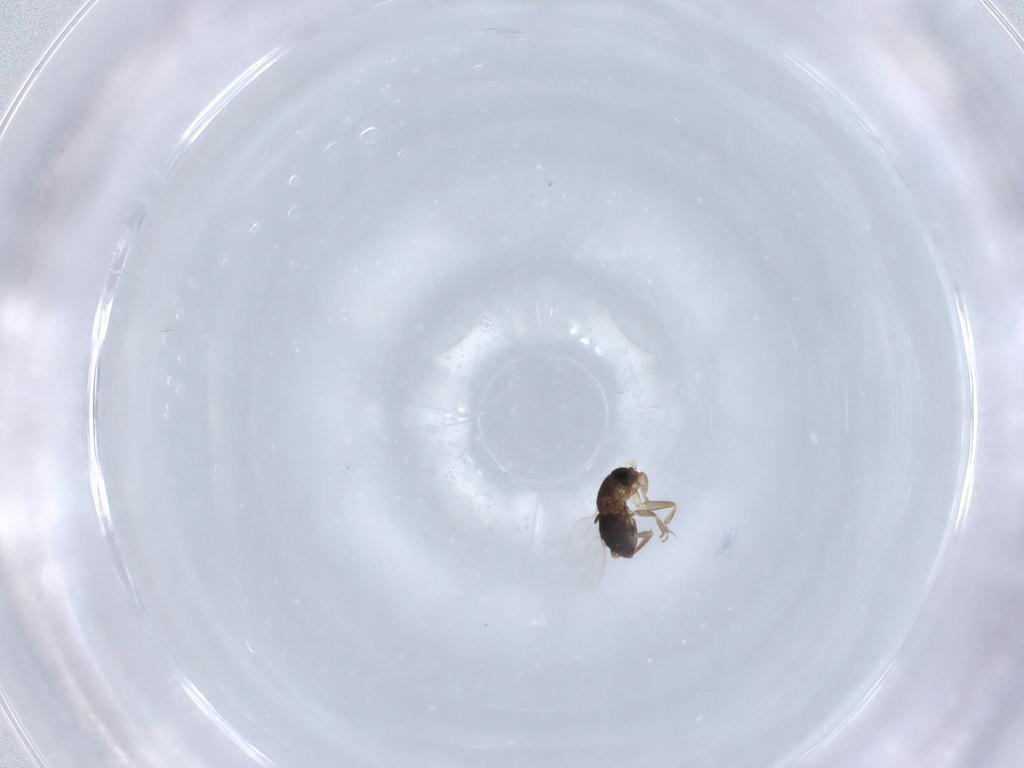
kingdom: Animalia
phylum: Arthropoda
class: Insecta
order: Diptera
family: Phoridae
